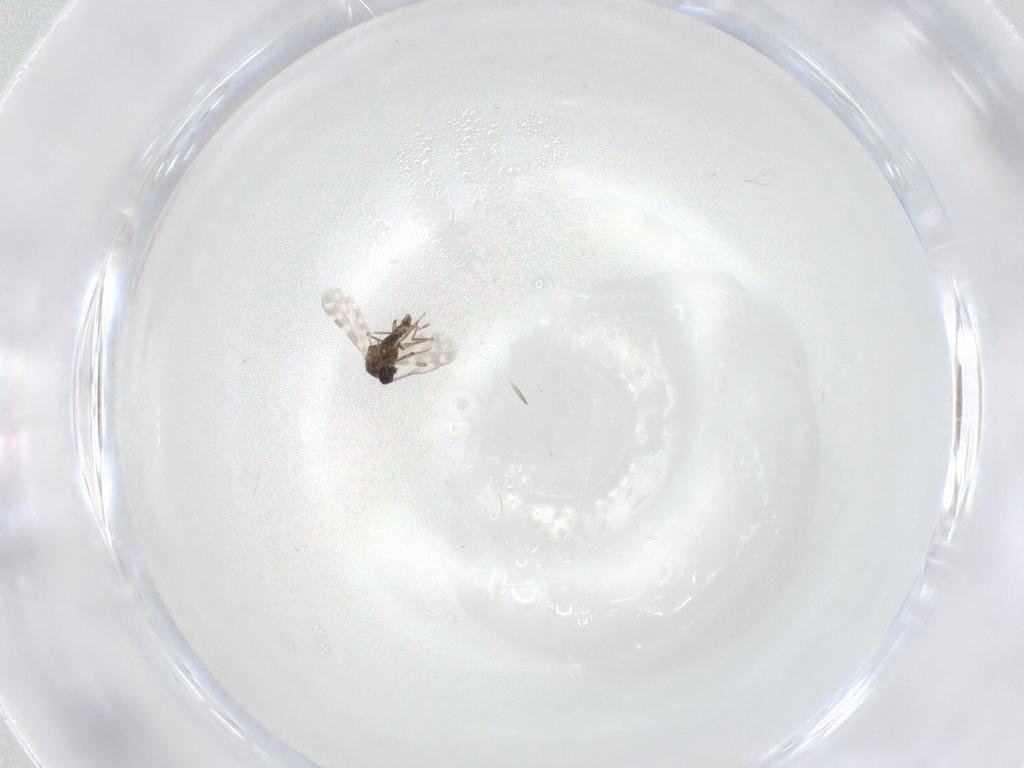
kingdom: Animalia
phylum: Arthropoda
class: Insecta
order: Diptera
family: Ceratopogonidae
